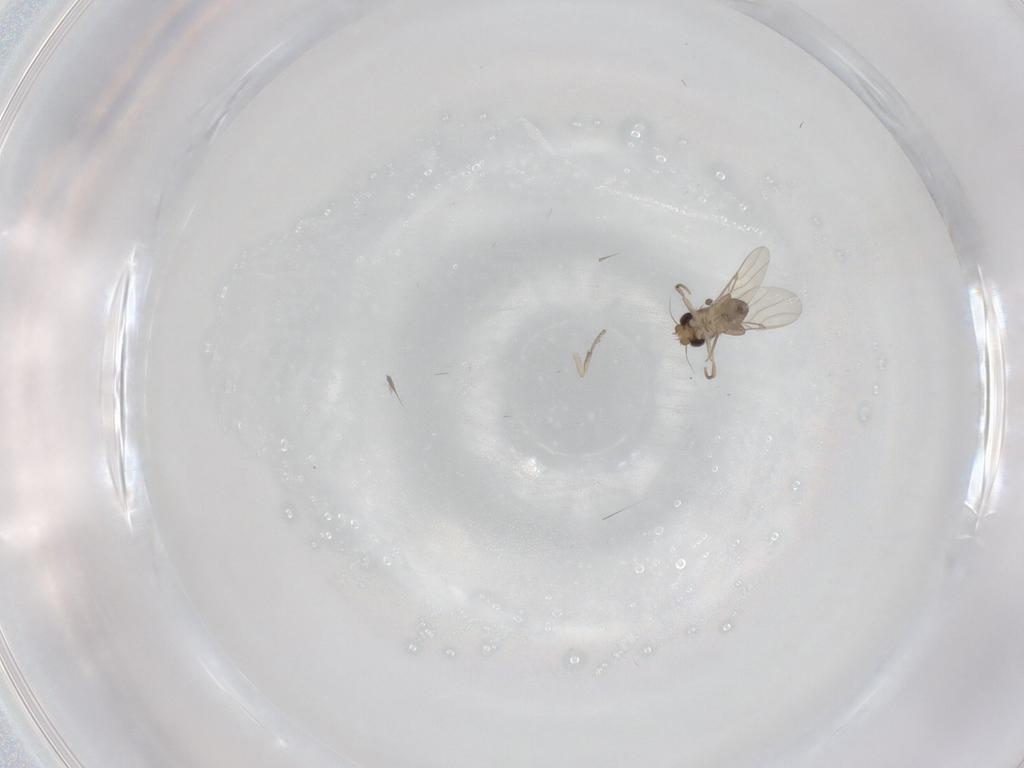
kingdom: Animalia
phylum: Arthropoda
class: Insecta
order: Diptera
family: Phoridae
